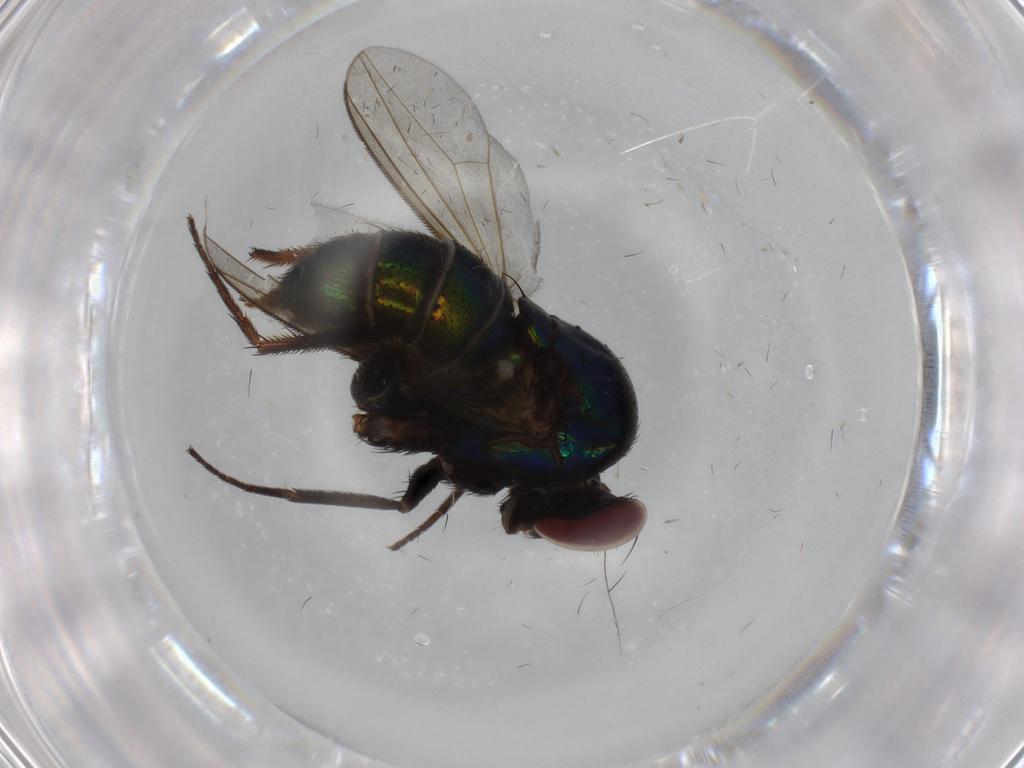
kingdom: Animalia
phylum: Arthropoda
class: Insecta
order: Diptera
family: Dolichopodidae
